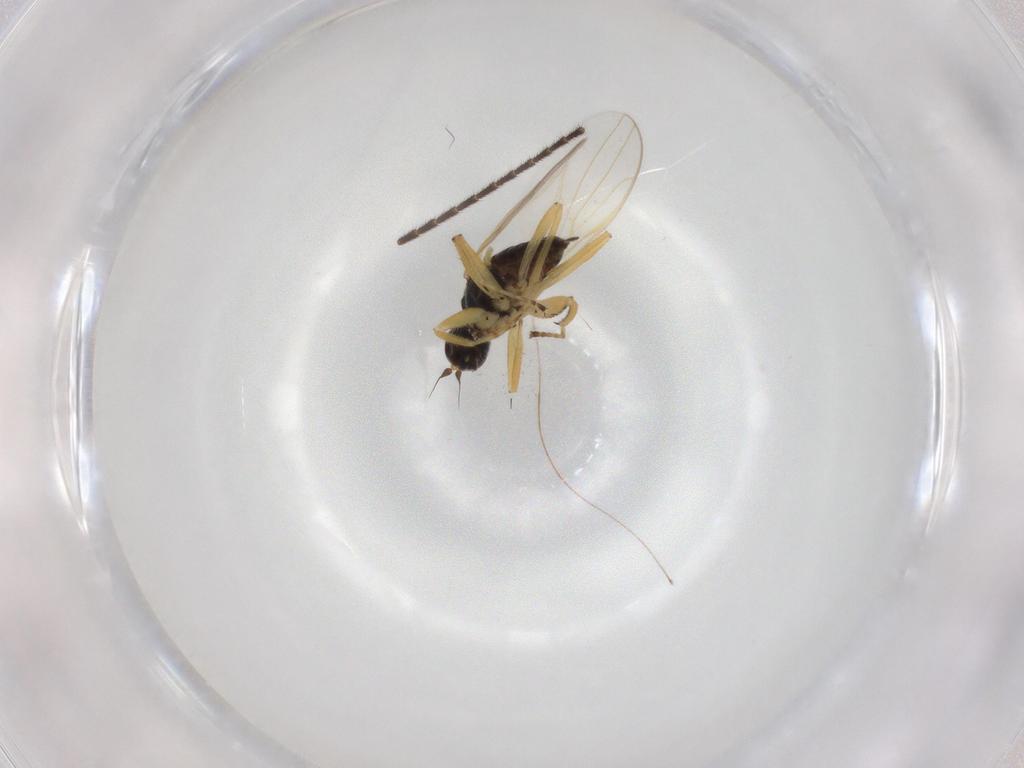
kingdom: Animalia
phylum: Arthropoda
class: Insecta
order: Diptera
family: Hybotidae
